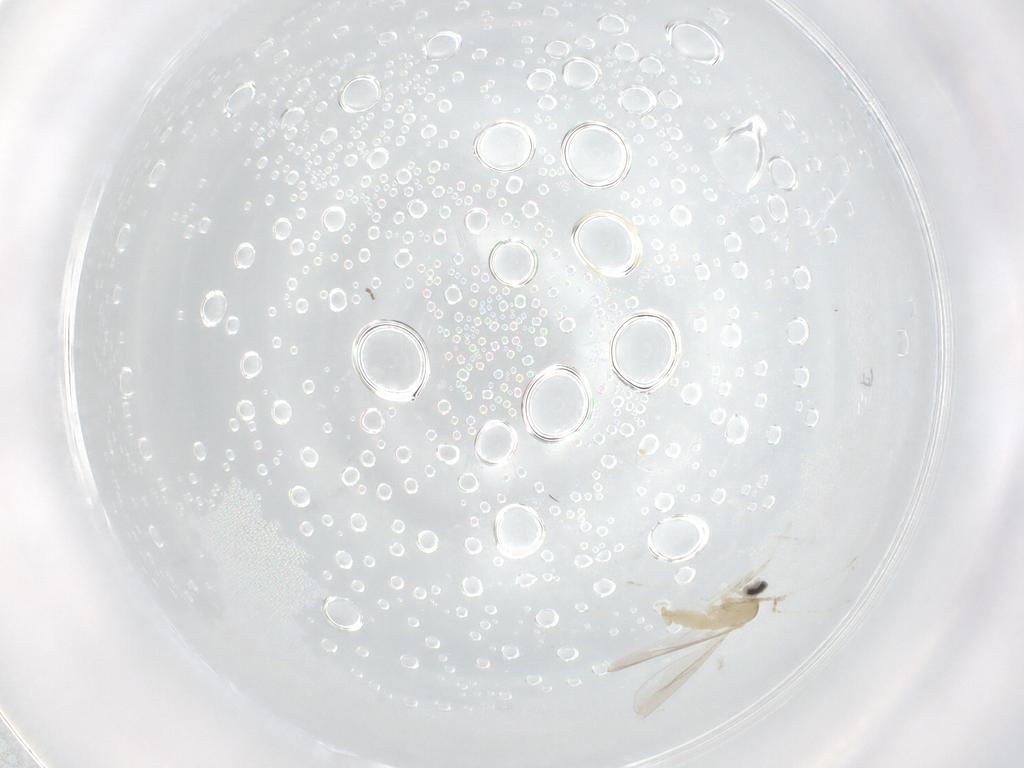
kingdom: Animalia
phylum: Arthropoda
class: Insecta
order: Diptera
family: Cecidomyiidae
